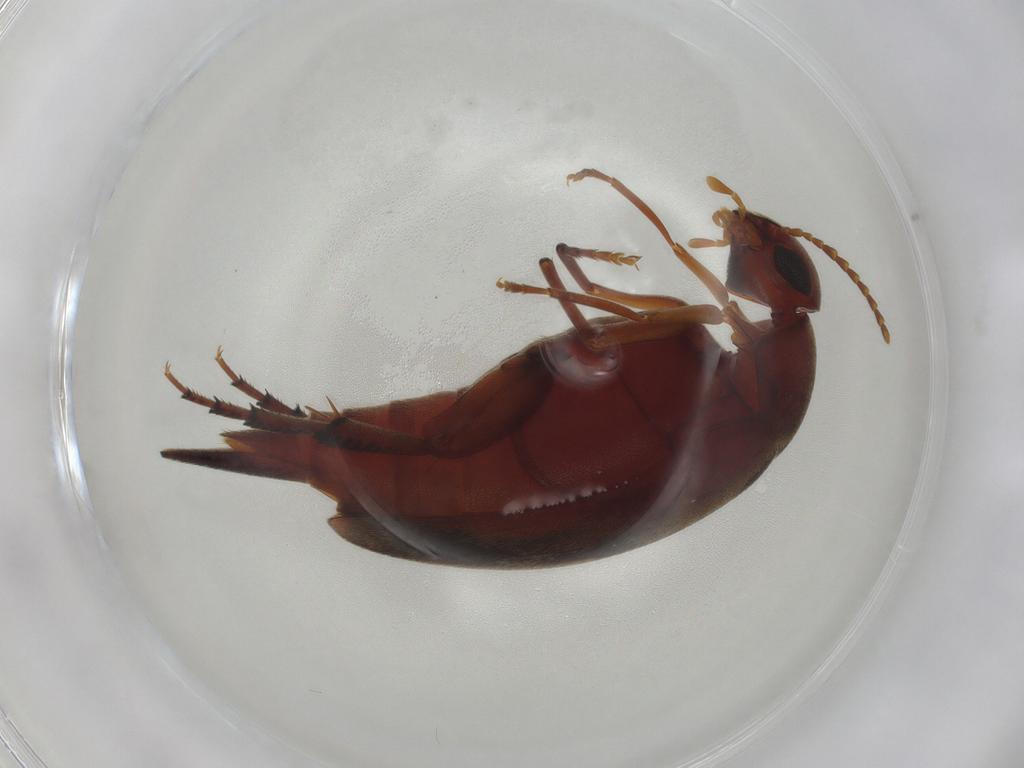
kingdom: Animalia
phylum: Arthropoda
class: Insecta
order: Coleoptera
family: Mordellidae
